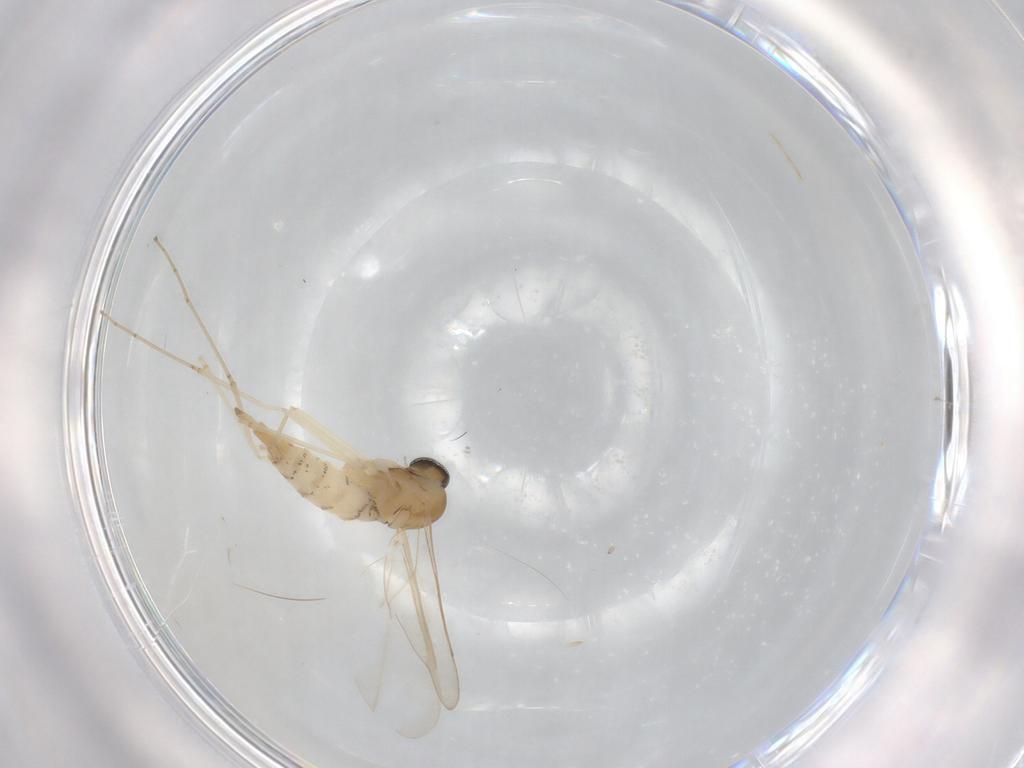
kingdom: Animalia
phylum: Arthropoda
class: Insecta
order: Diptera
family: Cecidomyiidae
